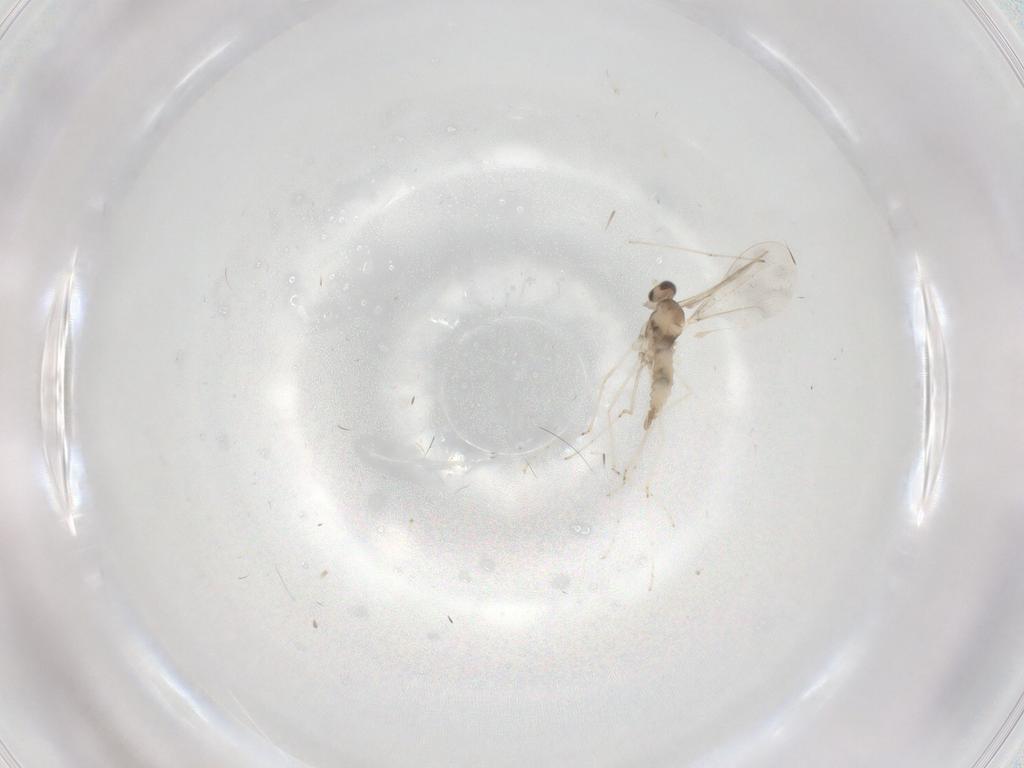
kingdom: Animalia
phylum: Arthropoda
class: Insecta
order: Diptera
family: Cecidomyiidae
